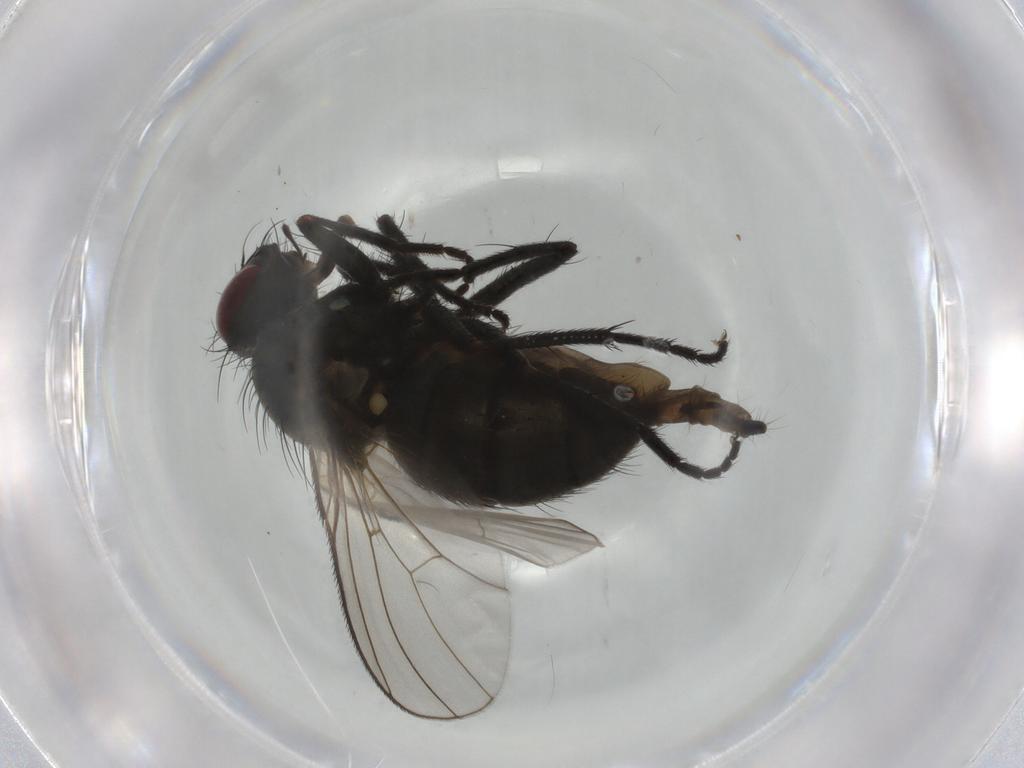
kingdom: Animalia
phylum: Arthropoda
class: Insecta
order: Diptera
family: Muscidae
